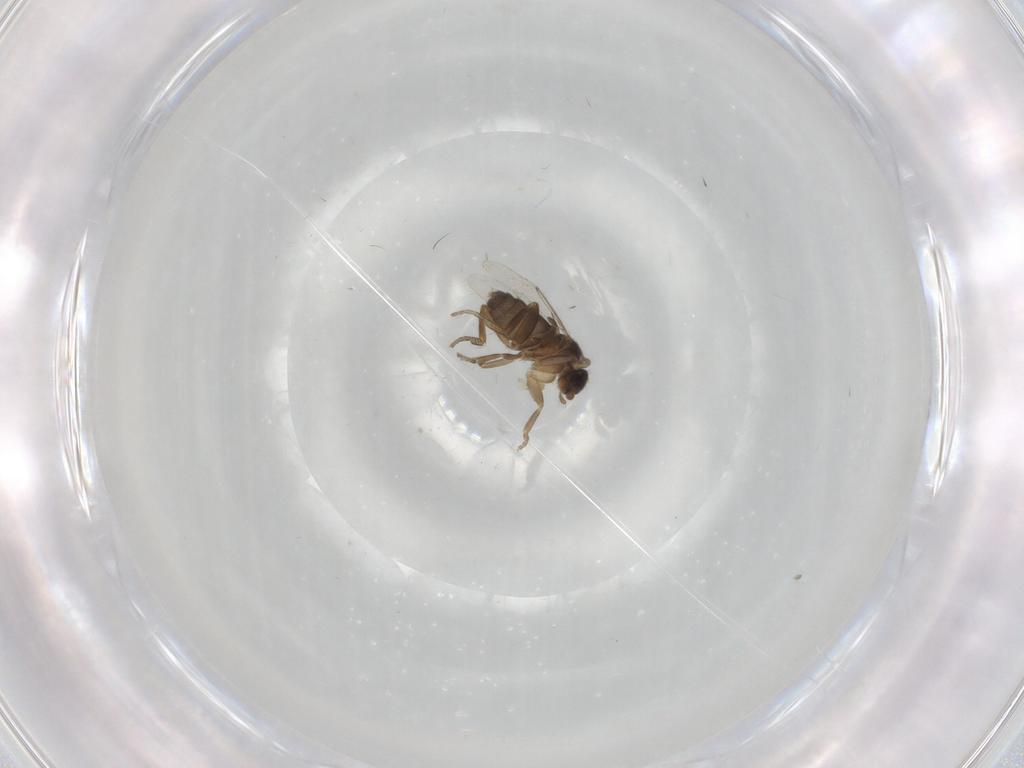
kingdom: Animalia
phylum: Arthropoda
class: Insecta
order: Diptera
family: Phoridae
